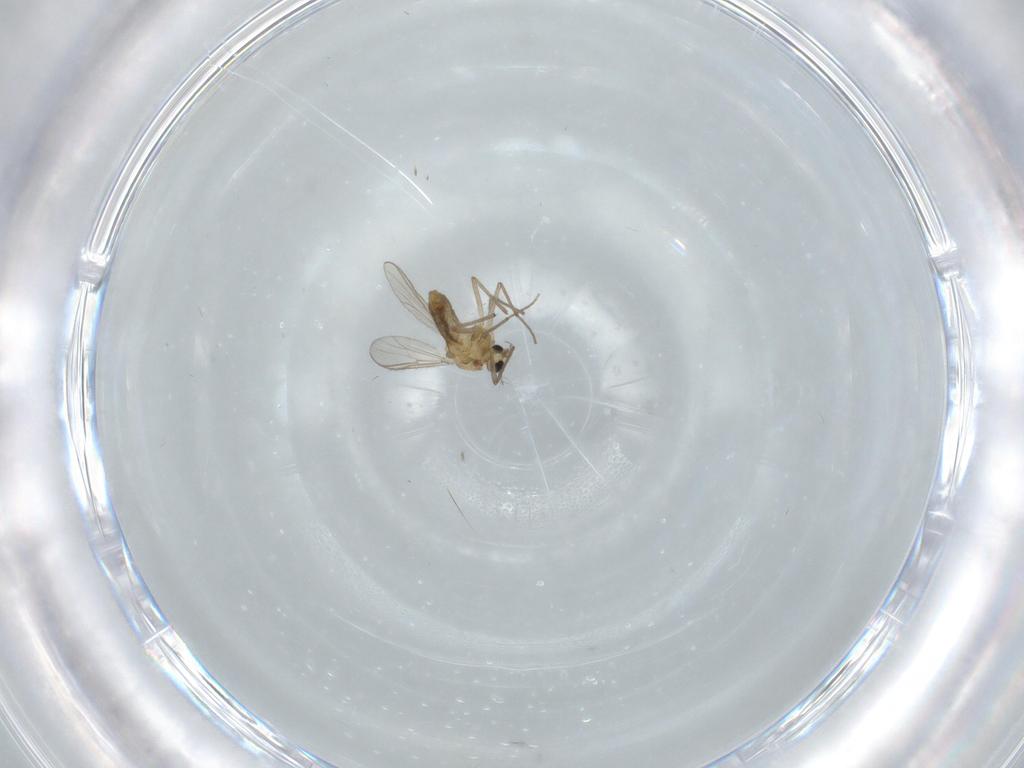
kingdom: Animalia
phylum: Arthropoda
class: Insecta
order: Diptera
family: Chironomidae
